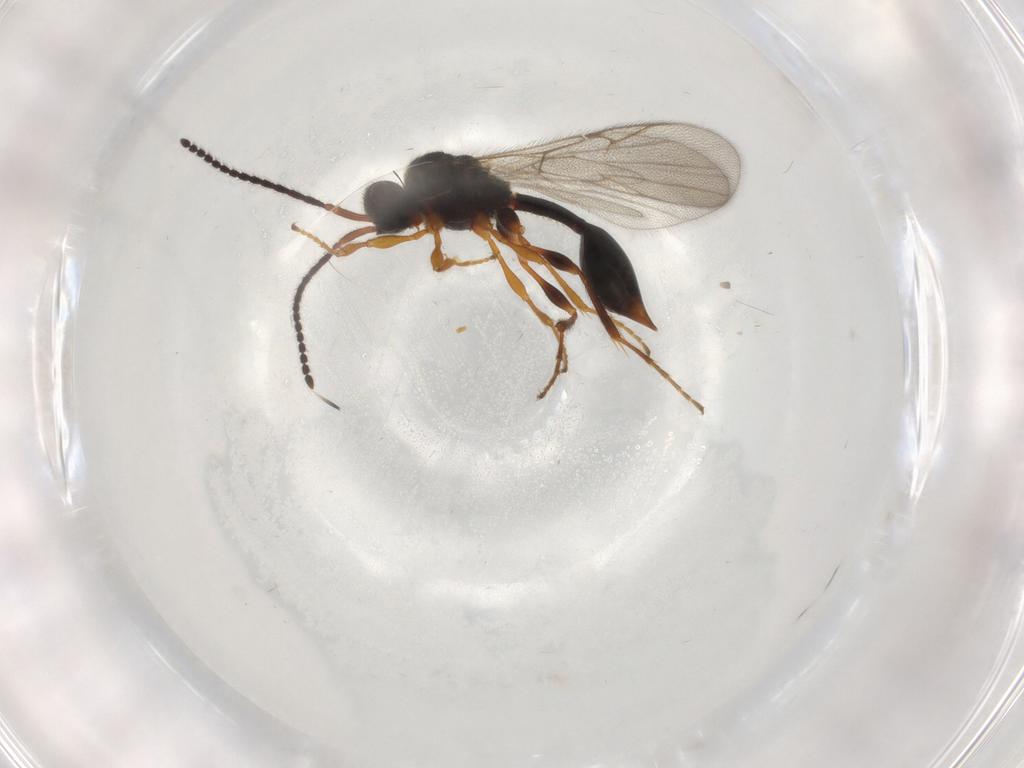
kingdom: Animalia
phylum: Arthropoda
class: Insecta
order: Hymenoptera
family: Diapriidae
